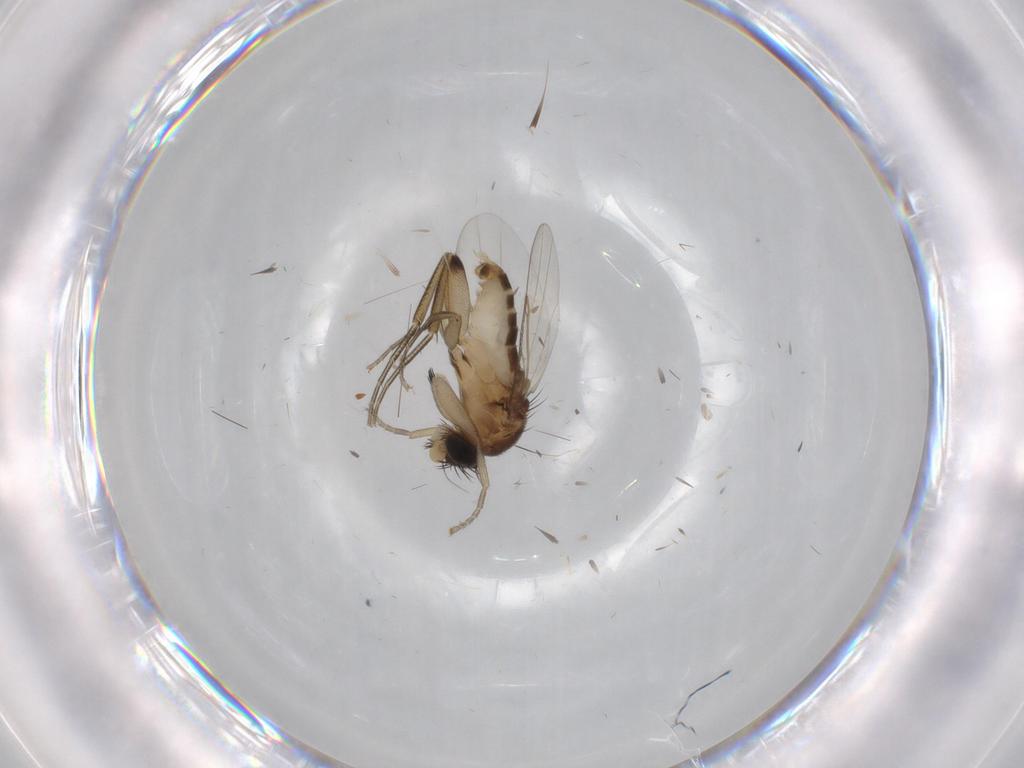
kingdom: Animalia
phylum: Arthropoda
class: Insecta
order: Diptera
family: Phoridae
